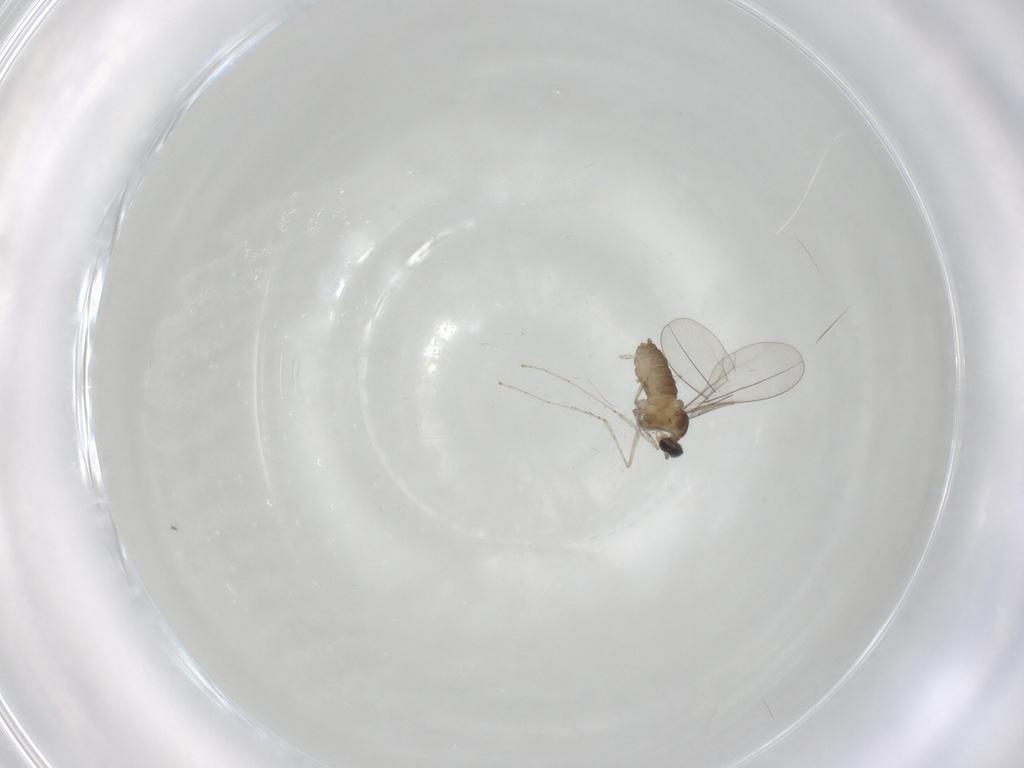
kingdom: Animalia
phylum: Arthropoda
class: Insecta
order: Diptera
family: Cecidomyiidae
